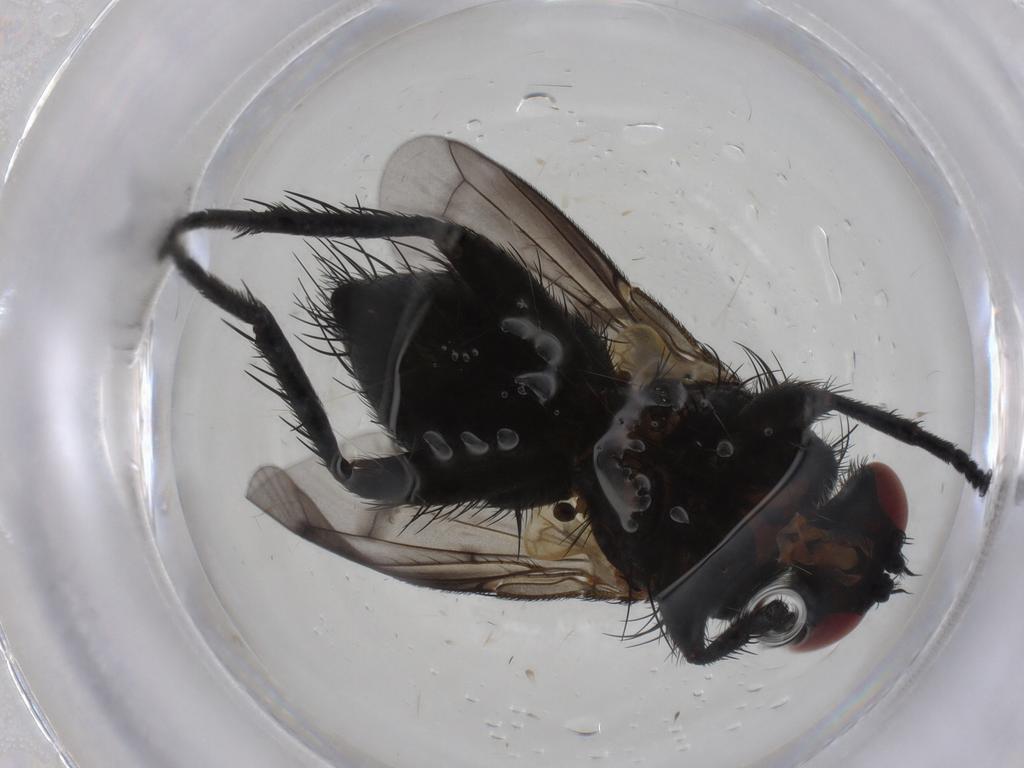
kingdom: Animalia
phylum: Arthropoda
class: Insecta
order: Diptera
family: Tachinidae
